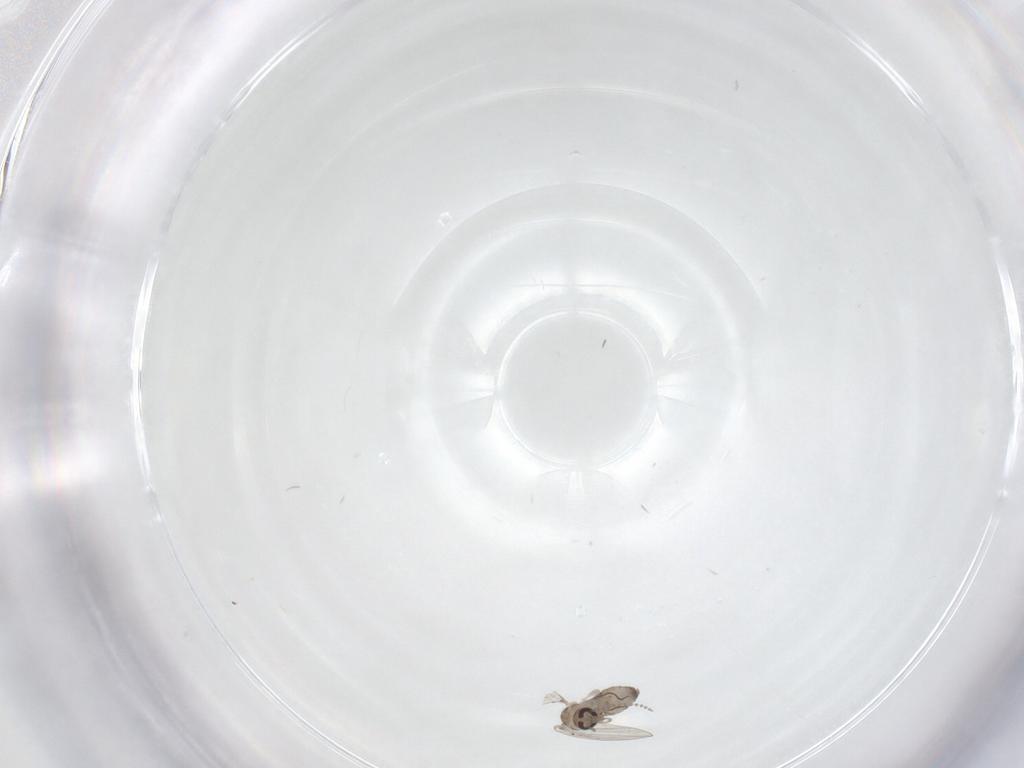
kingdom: Animalia
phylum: Arthropoda
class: Insecta
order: Diptera
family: Psychodidae
